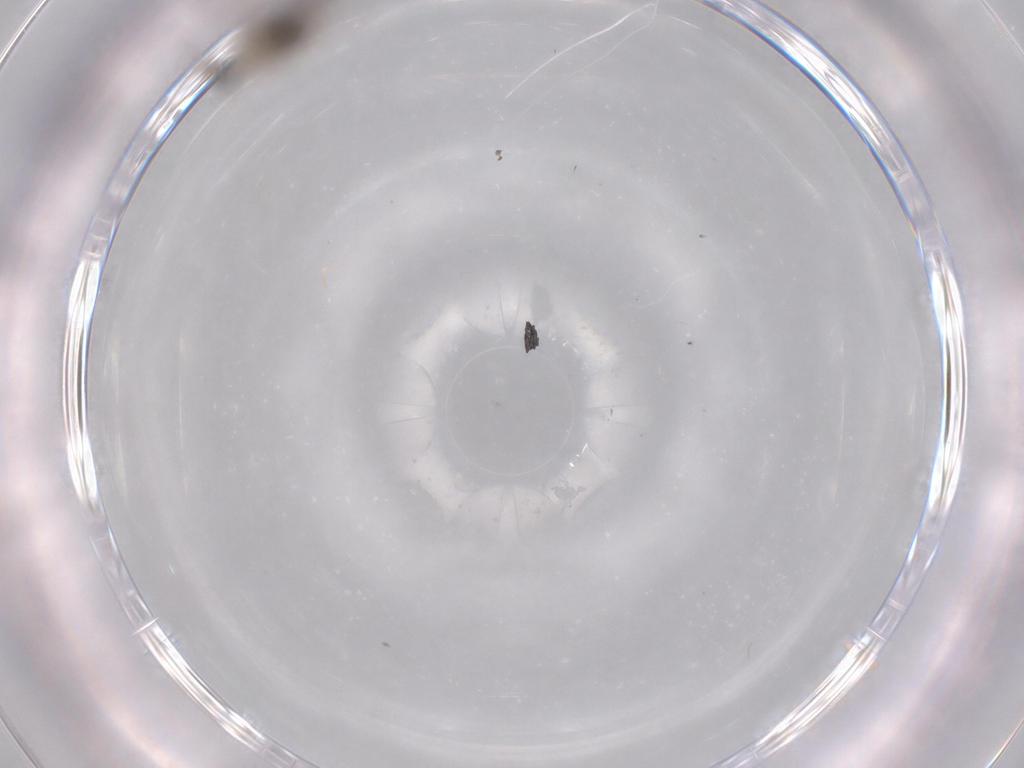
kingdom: Animalia
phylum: Arthropoda
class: Insecta
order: Diptera
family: Cecidomyiidae
